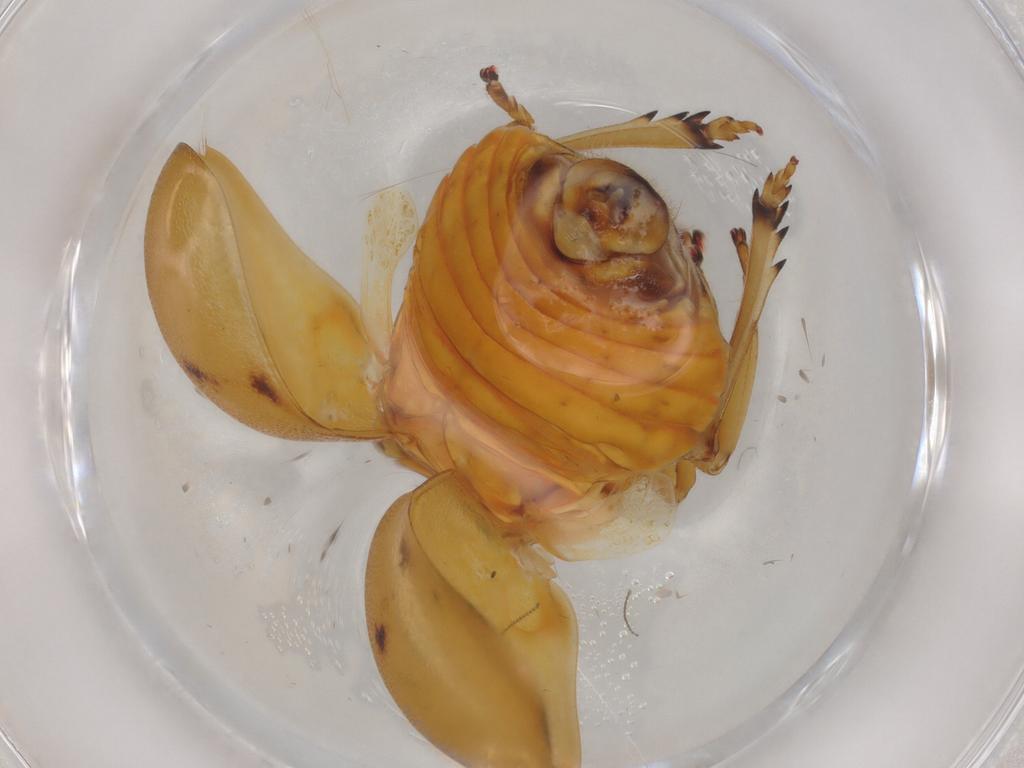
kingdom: Animalia
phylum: Arthropoda
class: Insecta
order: Hemiptera
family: Issidae
